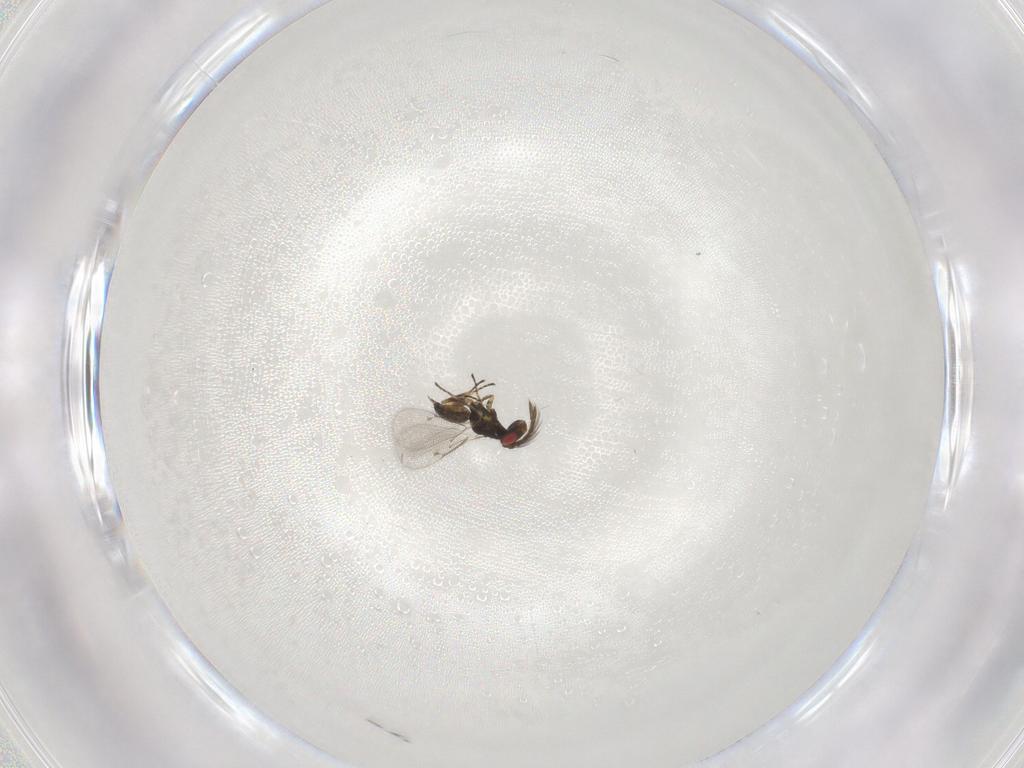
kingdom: Animalia
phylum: Arthropoda
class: Insecta
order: Hymenoptera
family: Eulophidae
